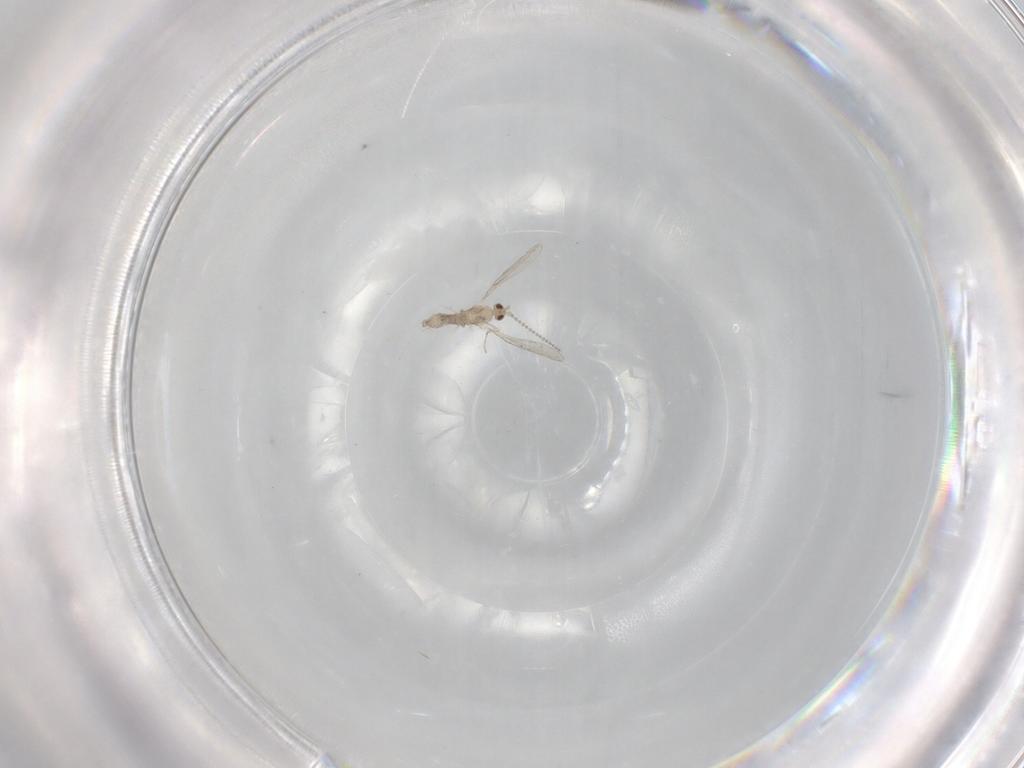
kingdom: Animalia
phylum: Arthropoda
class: Insecta
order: Diptera
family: Phoridae
